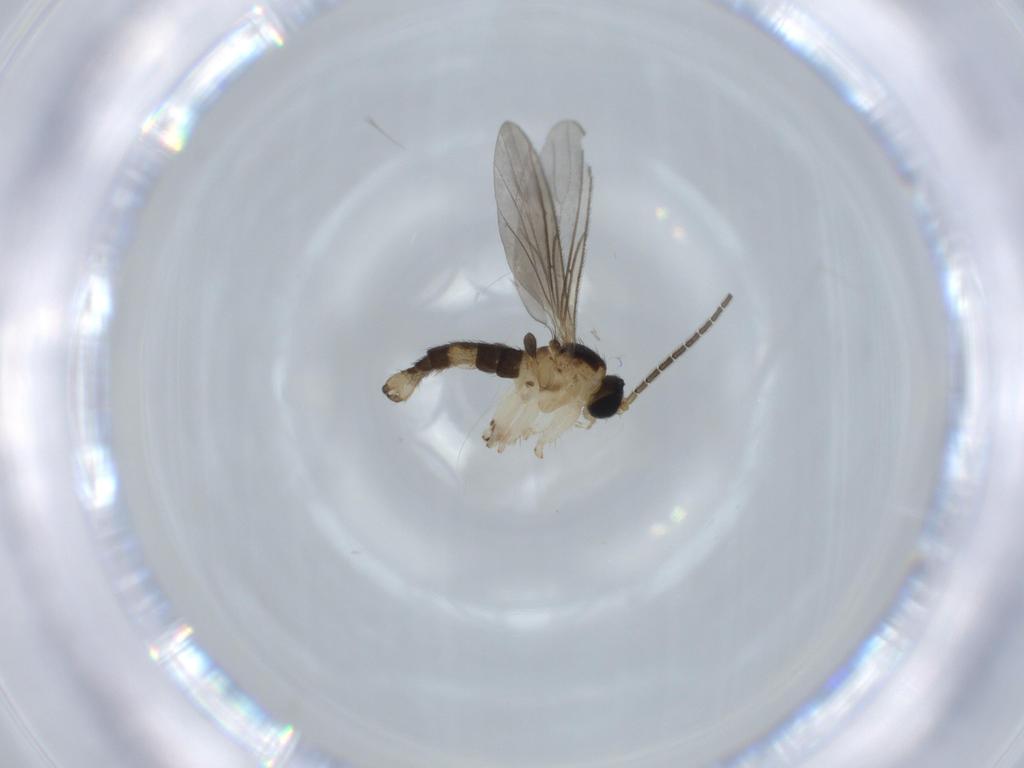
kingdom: Animalia
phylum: Arthropoda
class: Insecta
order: Diptera
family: Sciaridae
